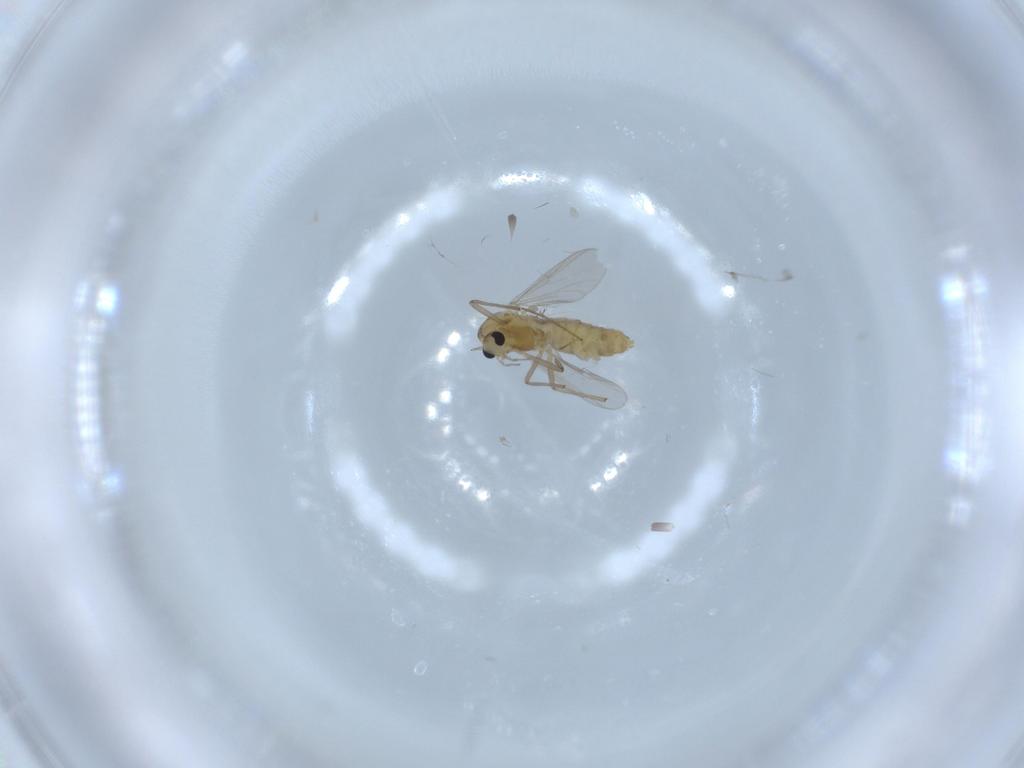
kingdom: Animalia
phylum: Arthropoda
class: Insecta
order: Diptera
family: Chironomidae
